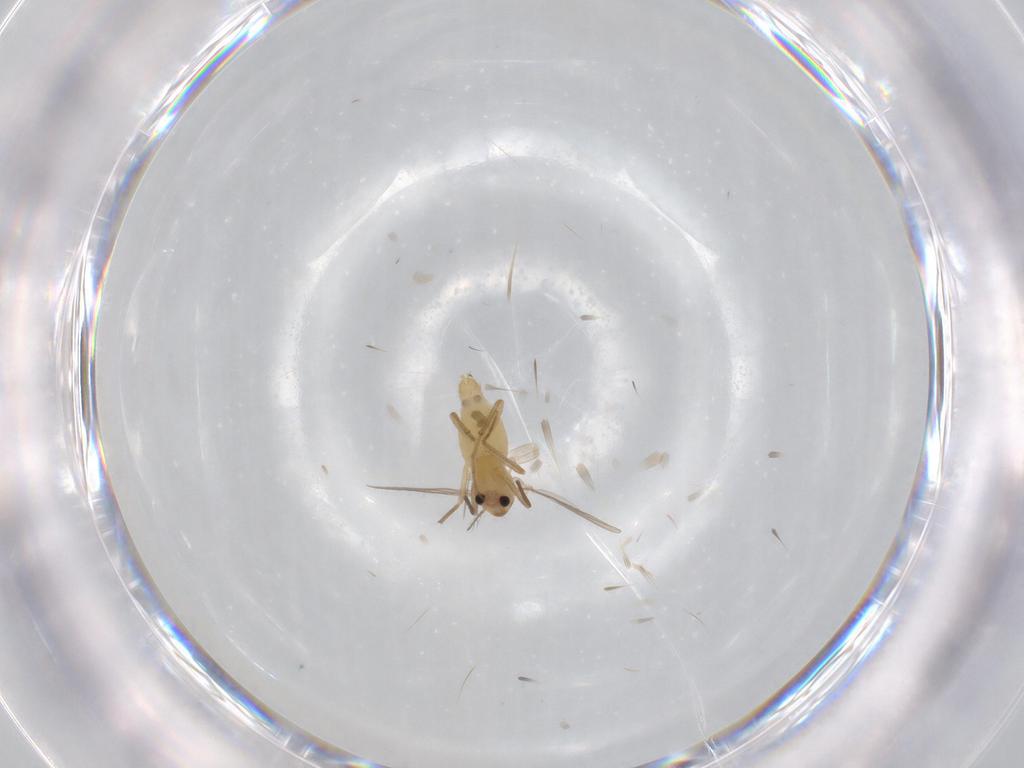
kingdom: Animalia
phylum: Arthropoda
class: Insecta
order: Diptera
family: Chironomidae
